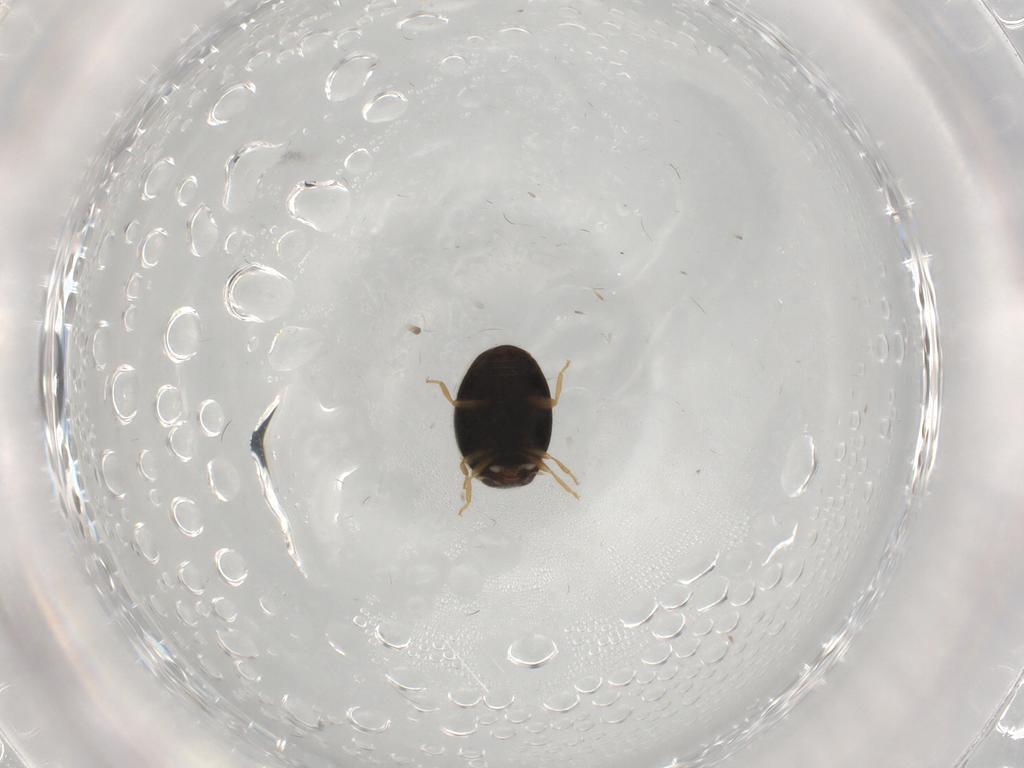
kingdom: Animalia
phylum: Arthropoda
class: Insecta
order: Coleoptera
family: Coccinellidae
